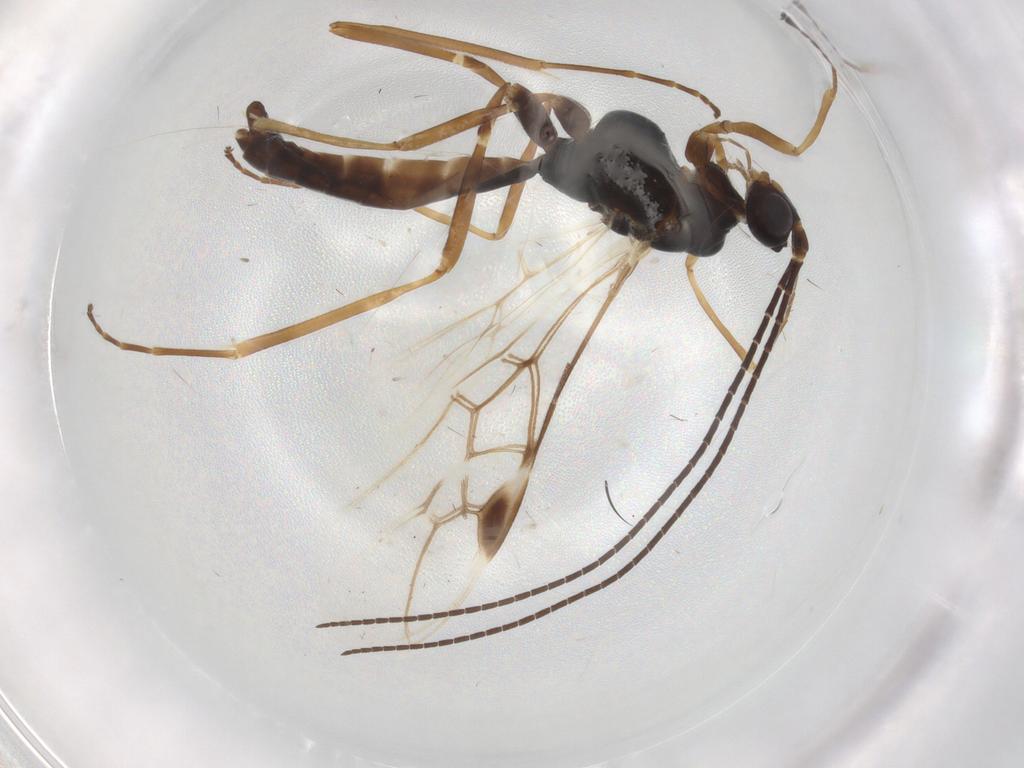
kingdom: Animalia
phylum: Arthropoda
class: Insecta
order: Hymenoptera
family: Braconidae
